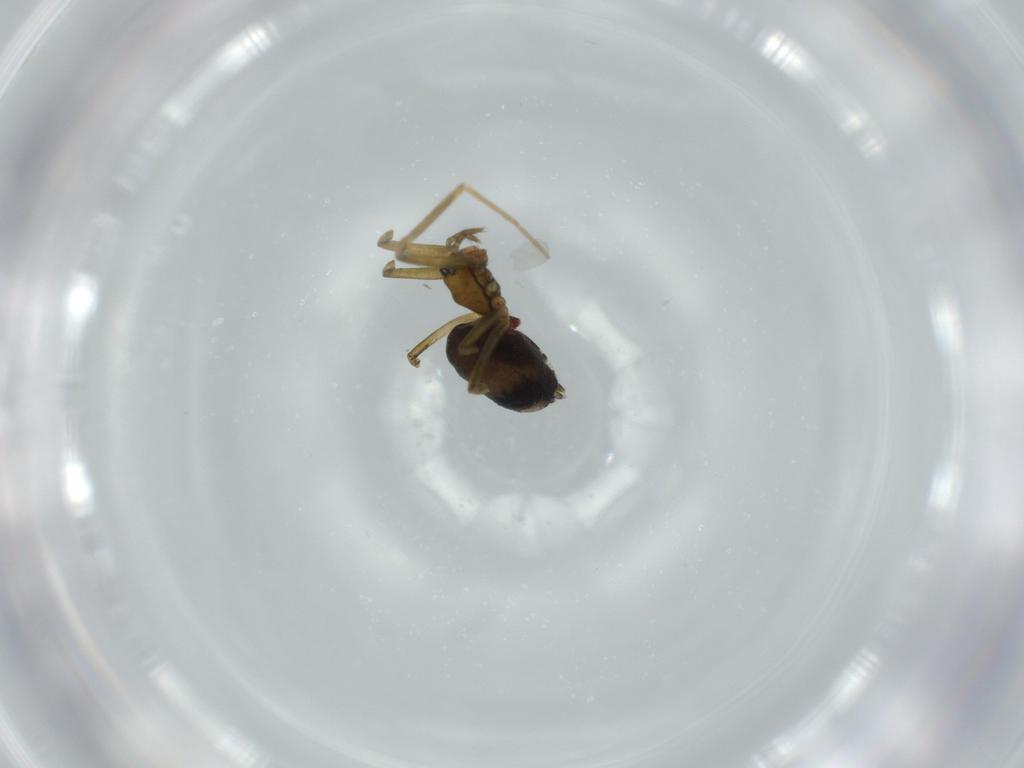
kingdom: Animalia
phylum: Arthropoda
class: Arachnida
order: Araneae
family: Linyphiidae
